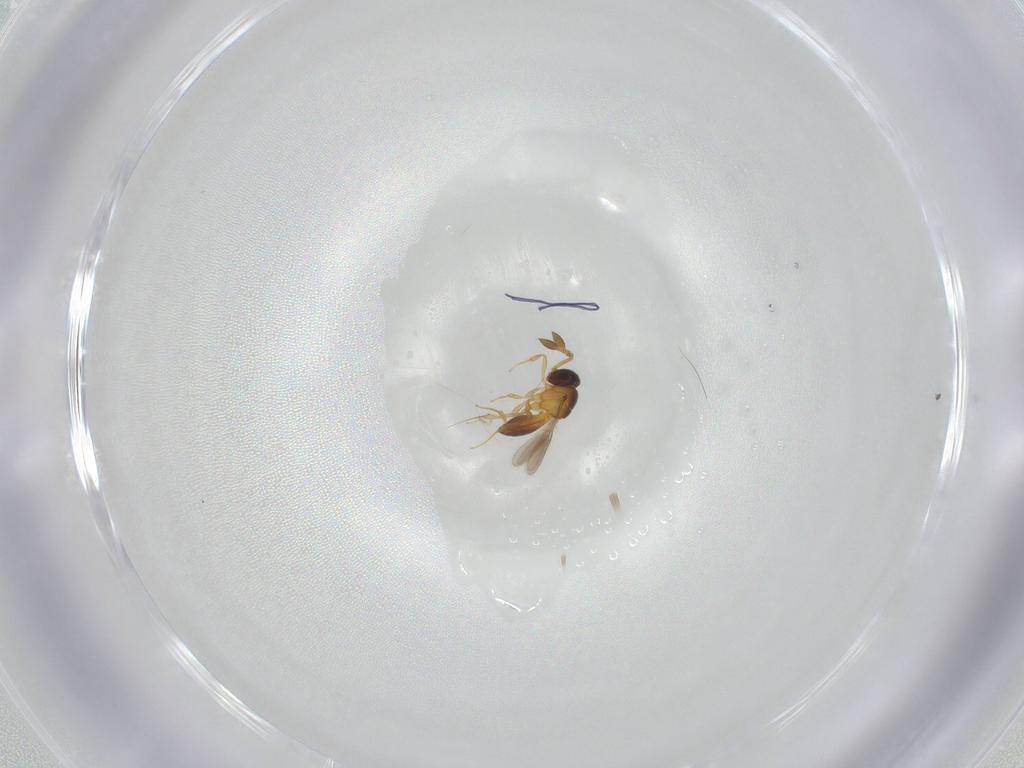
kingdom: Animalia
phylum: Arthropoda
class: Insecta
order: Hymenoptera
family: Scelionidae
